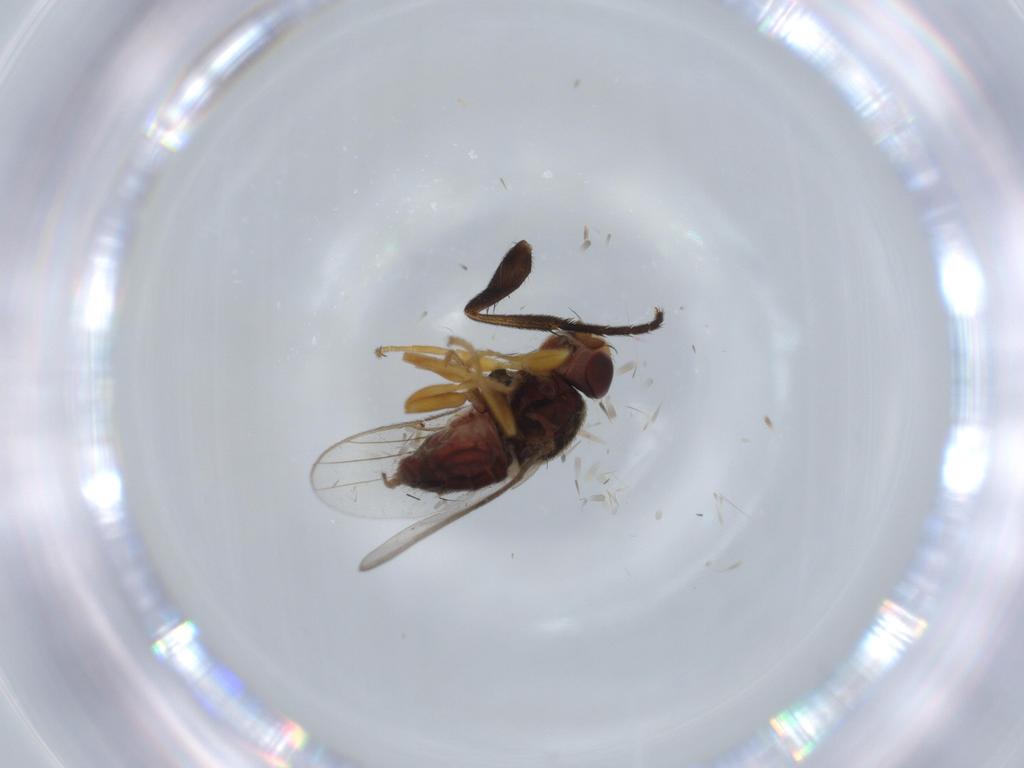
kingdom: Animalia
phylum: Arthropoda
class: Insecta
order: Diptera
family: Chloropidae
